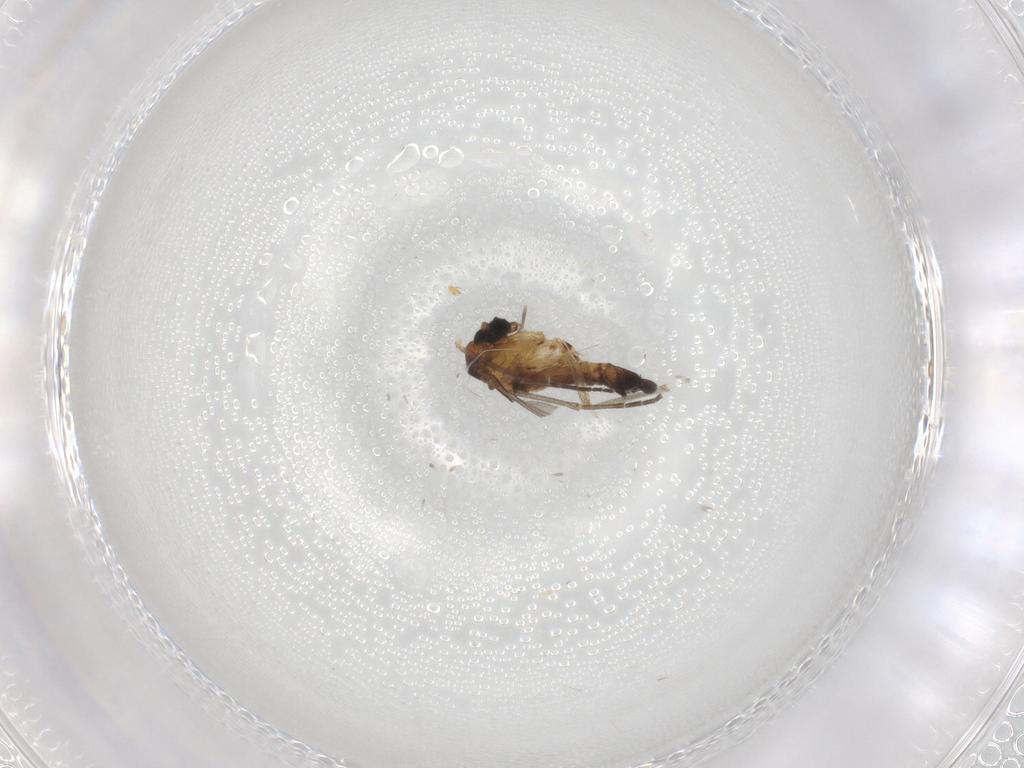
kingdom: Animalia
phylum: Arthropoda
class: Insecta
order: Diptera
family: Sciaridae
